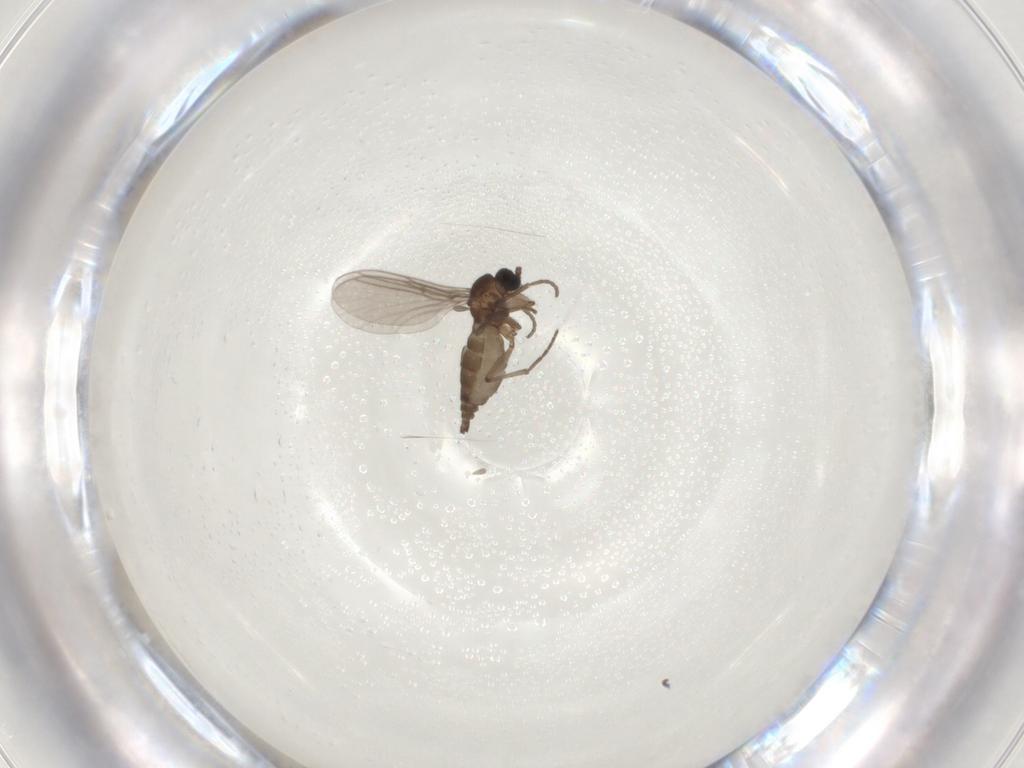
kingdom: Animalia
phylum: Arthropoda
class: Insecta
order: Diptera
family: Sciaridae
